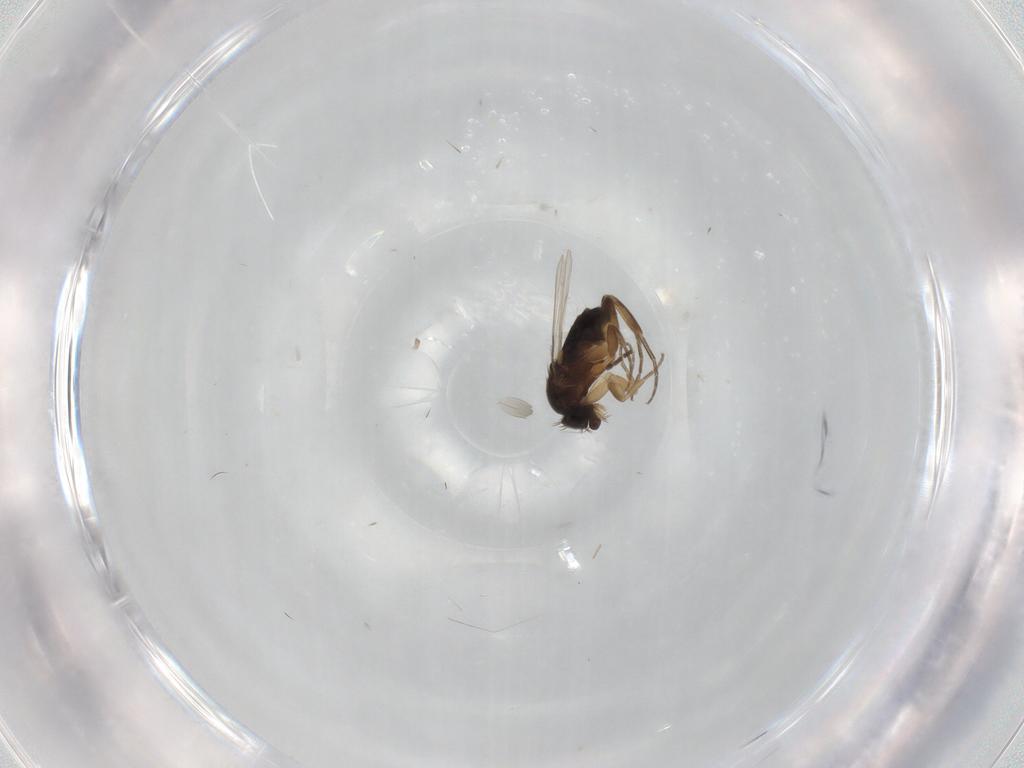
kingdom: Animalia
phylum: Arthropoda
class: Insecta
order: Diptera
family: Phoridae
